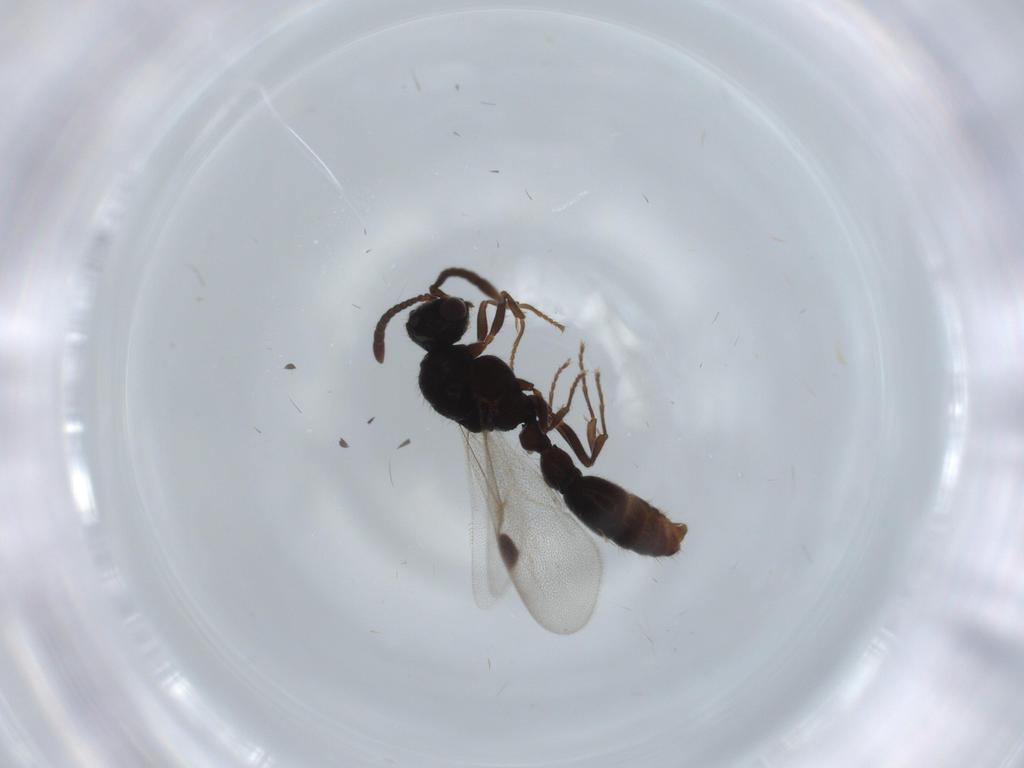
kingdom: Animalia
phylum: Arthropoda
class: Insecta
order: Hymenoptera
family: Formicidae
